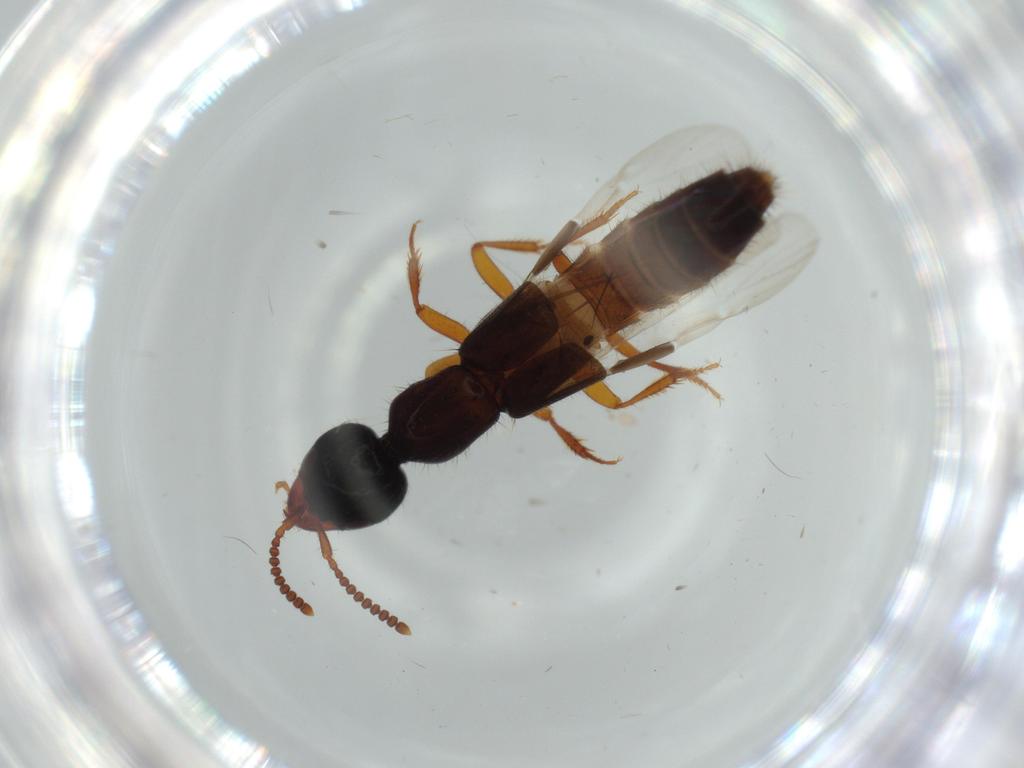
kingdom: Animalia
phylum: Arthropoda
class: Insecta
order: Coleoptera
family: Staphylinidae
